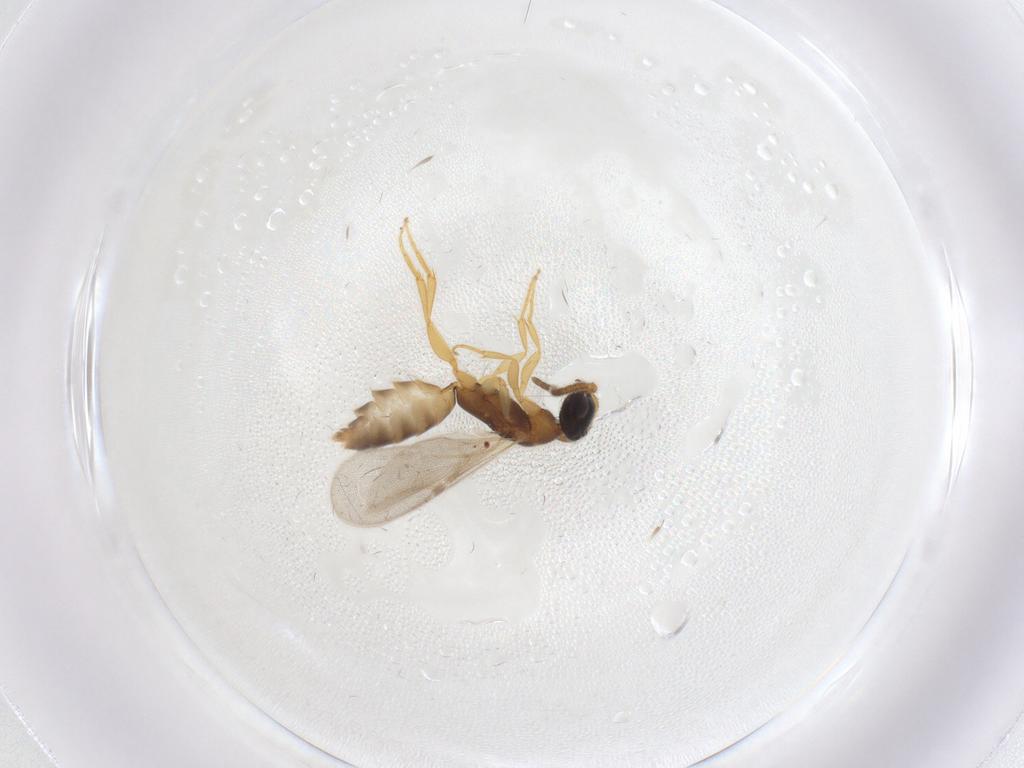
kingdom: Animalia
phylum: Arthropoda
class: Insecta
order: Hymenoptera
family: Bethylidae
